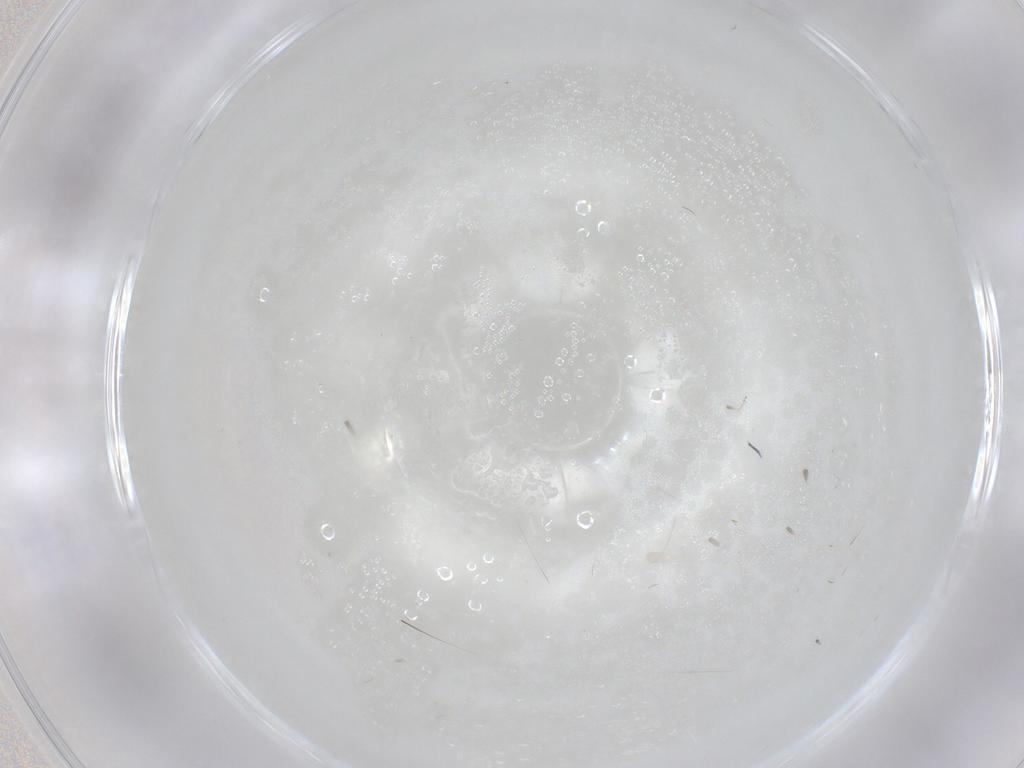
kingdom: Animalia
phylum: Arthropoda
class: Insecta
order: Diptera
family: Cecidomyiidae
